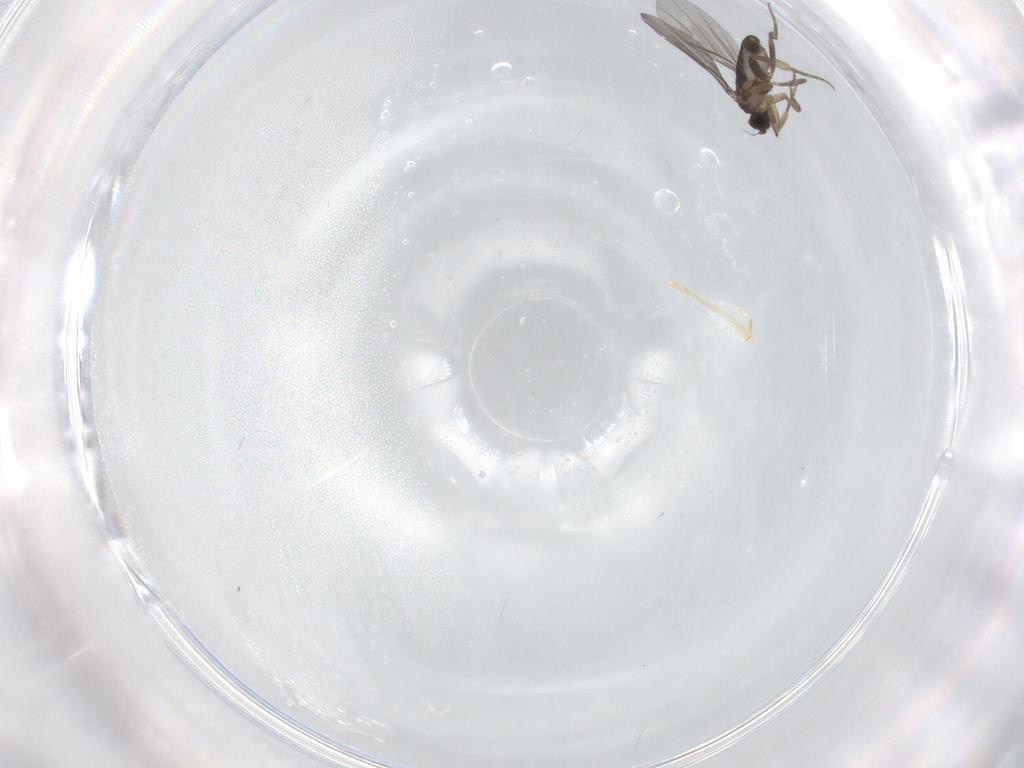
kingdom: Animalia
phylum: Arthropoda
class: Insecta
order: Diptera
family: Phoridae
